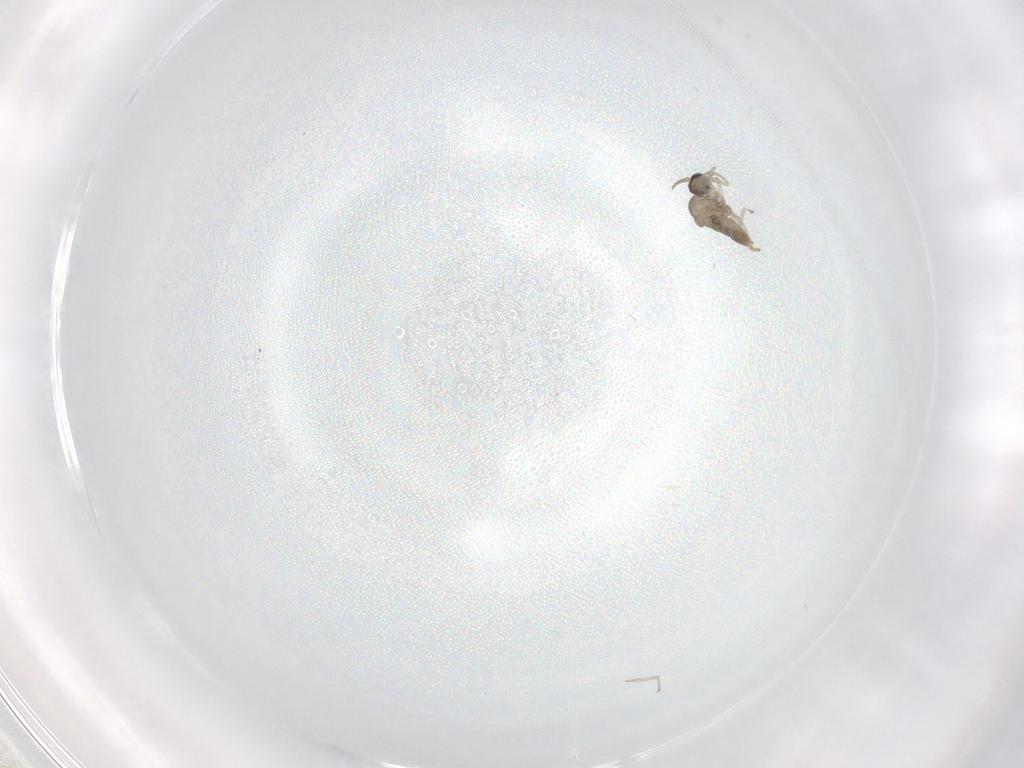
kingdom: Animalia
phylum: Arthropoda
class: Insecta
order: Diptera
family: Cecidomyiidae
